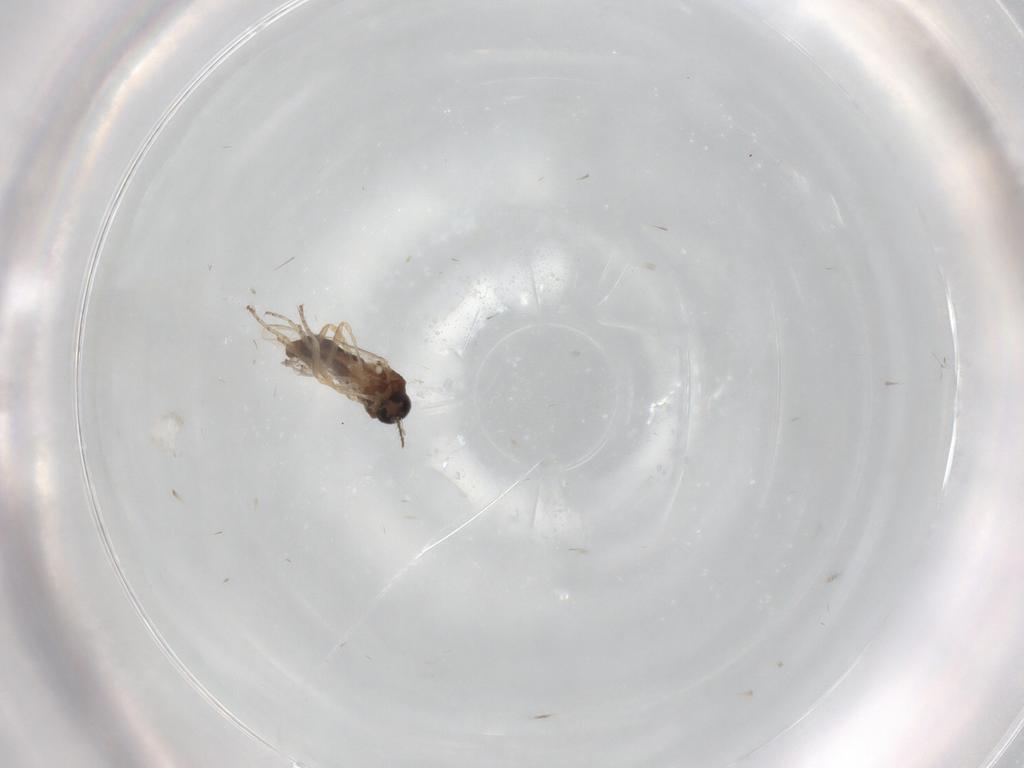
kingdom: Animalia
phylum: Arthropoda
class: Insecta
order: Diptera
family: Ceratopogonidae
